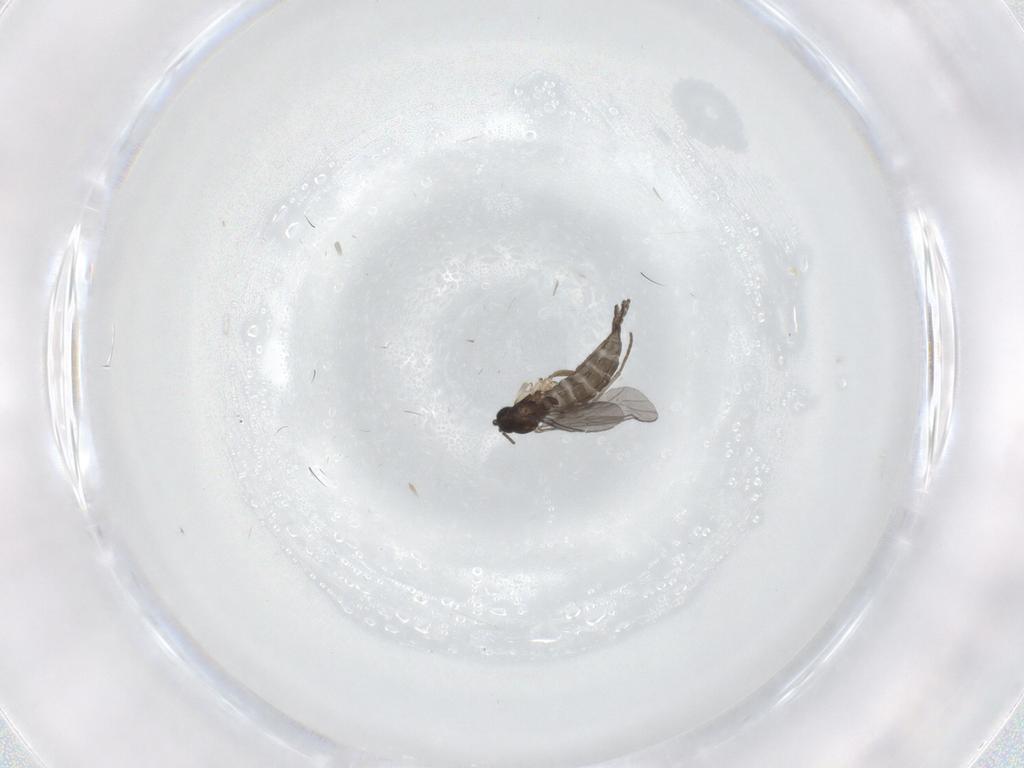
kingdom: Animalia
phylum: Arthropoda
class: Insecta
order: Diptera
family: Sciaridae
